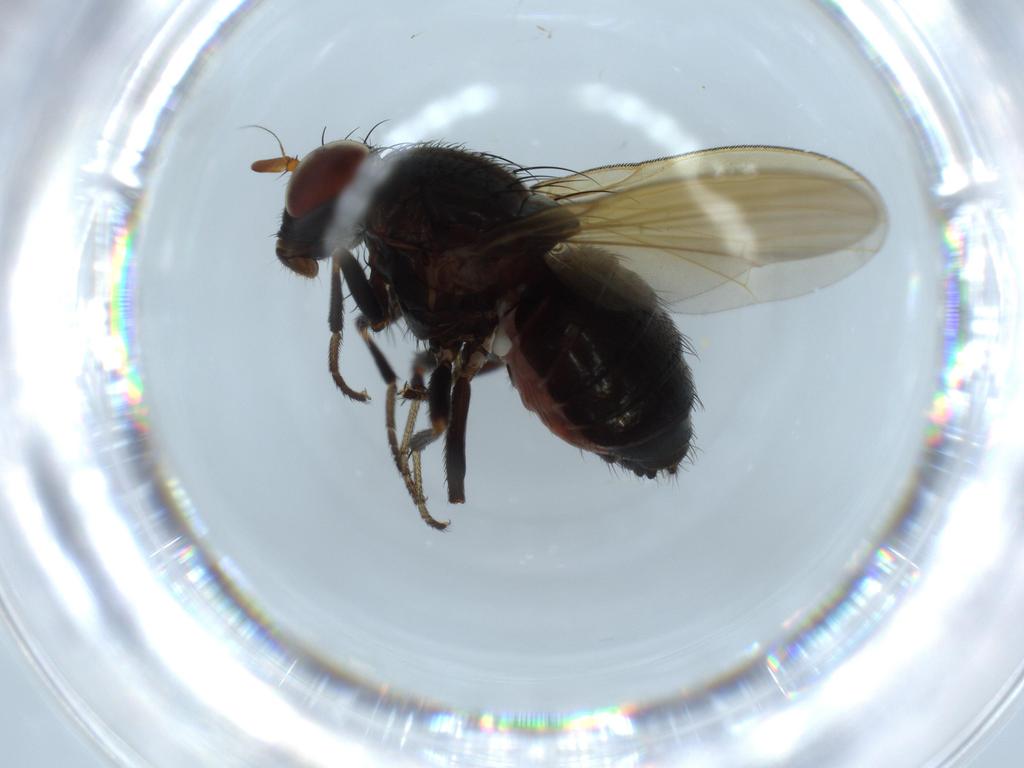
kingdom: Animalia
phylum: Arthropoda
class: Insecta
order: Diptera
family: Lauxaniidae
